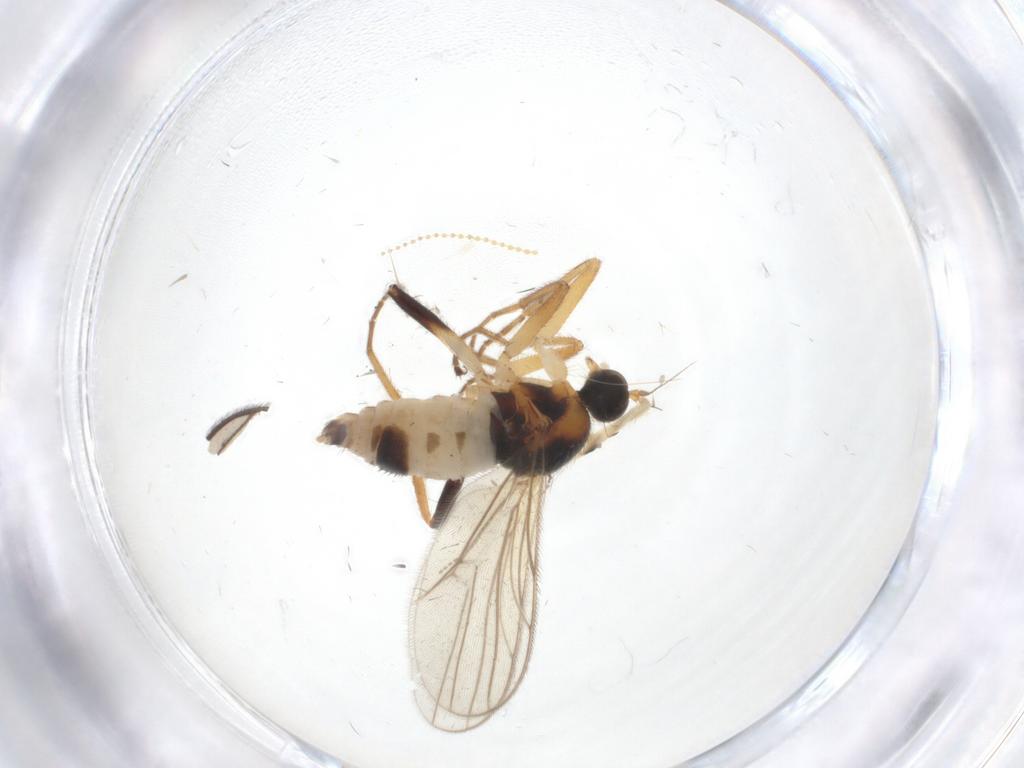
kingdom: Animalia
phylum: Arthropoda
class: Insecta
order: Diptera
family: Hybotidae
